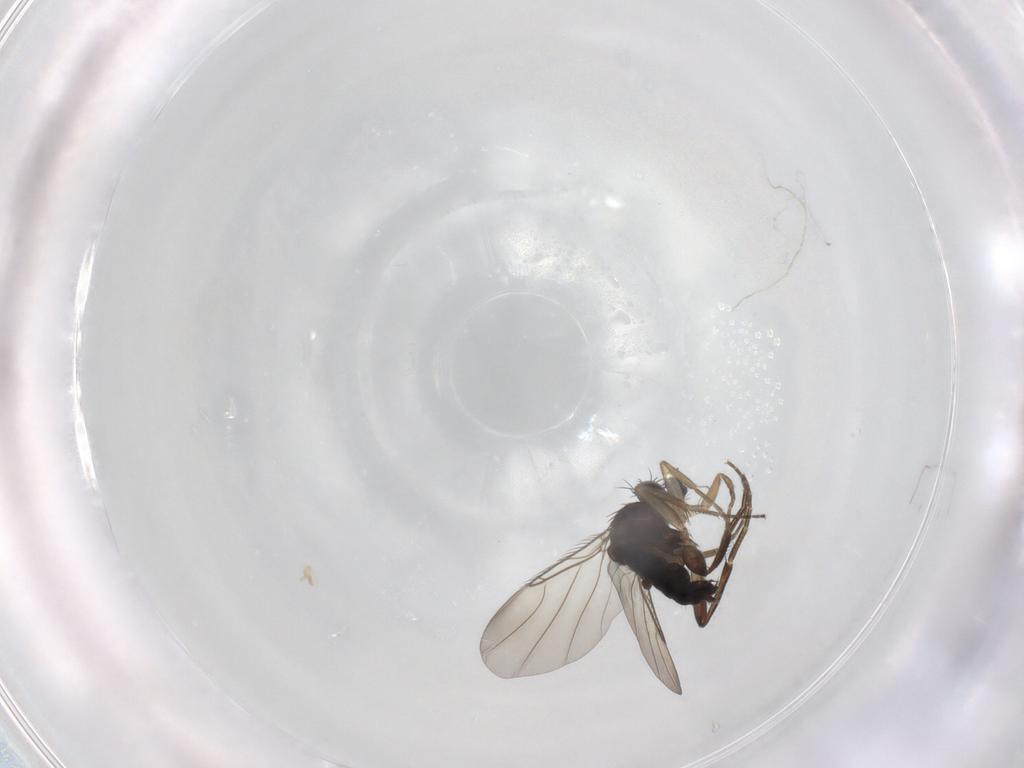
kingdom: Animalia
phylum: Arthropoda
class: Insecta
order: Diptera
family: Phoridae
